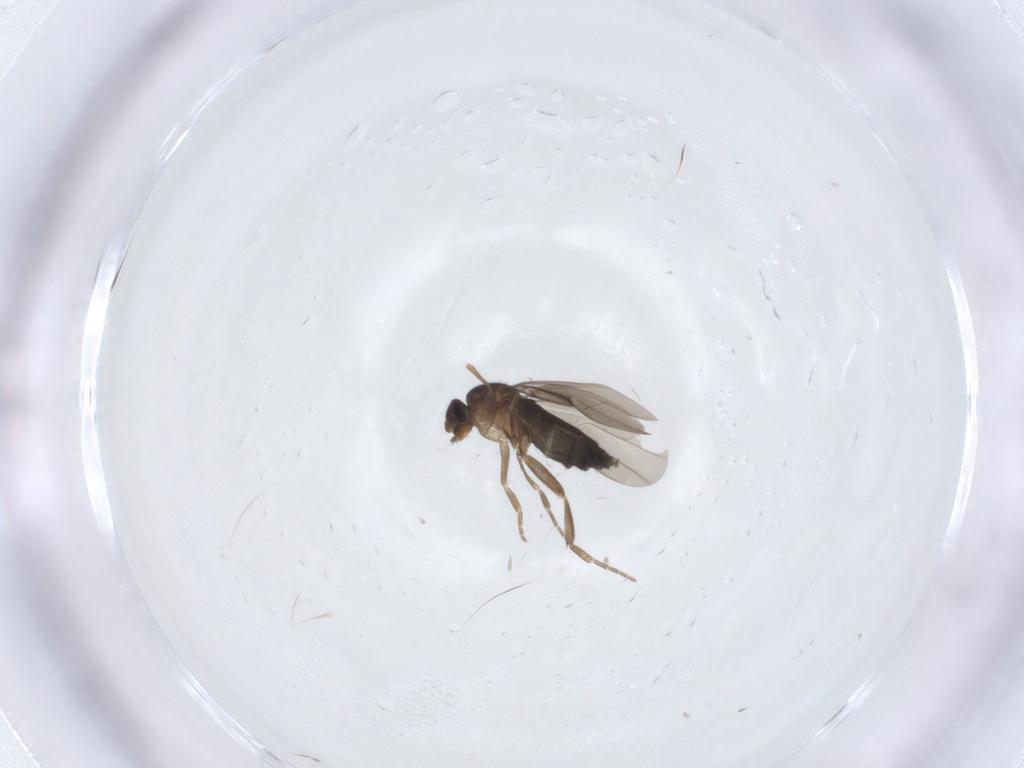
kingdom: Animalia
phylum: Arthropoda
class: Insecta
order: Diptera
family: Phoridae
